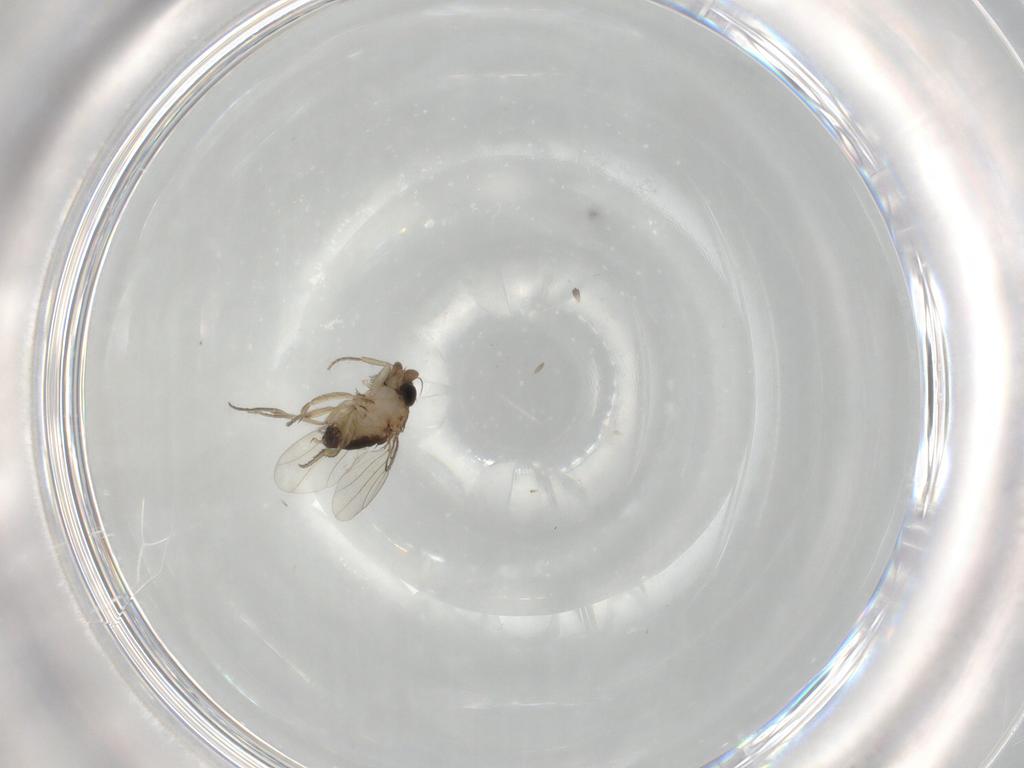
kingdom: Animalia
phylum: Arthropoda
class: Insecta
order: Diptera
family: Phoridae
